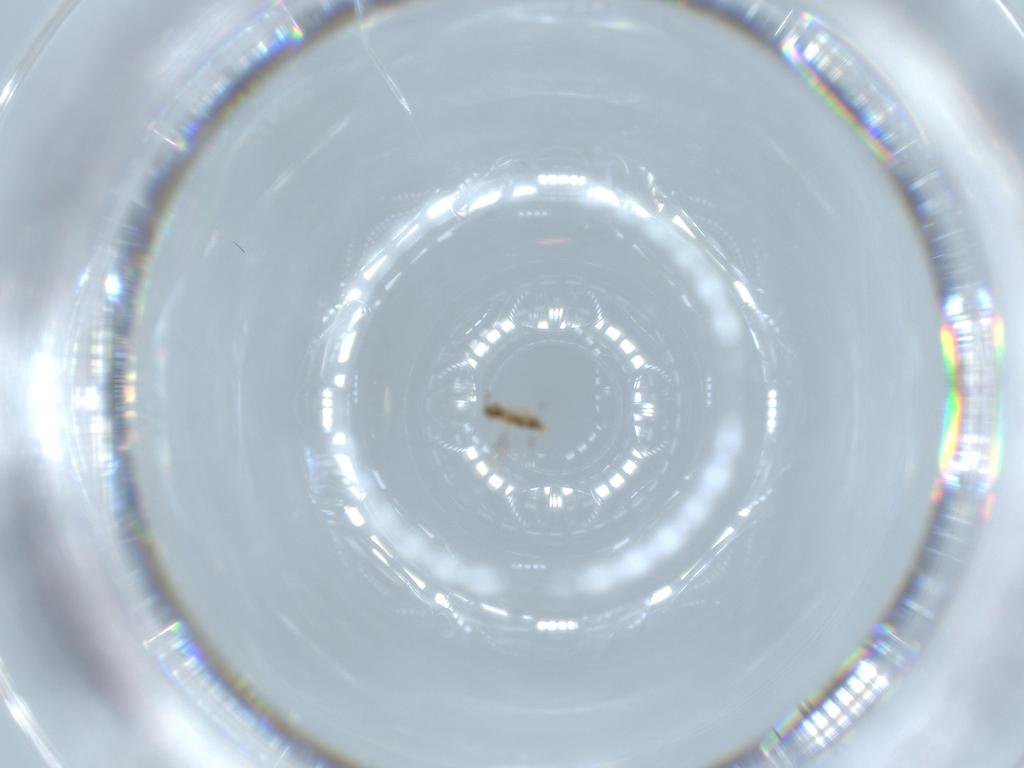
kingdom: Animalia
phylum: Arthropoda
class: Insecta
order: Hymenoptera
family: Aphelinidae
